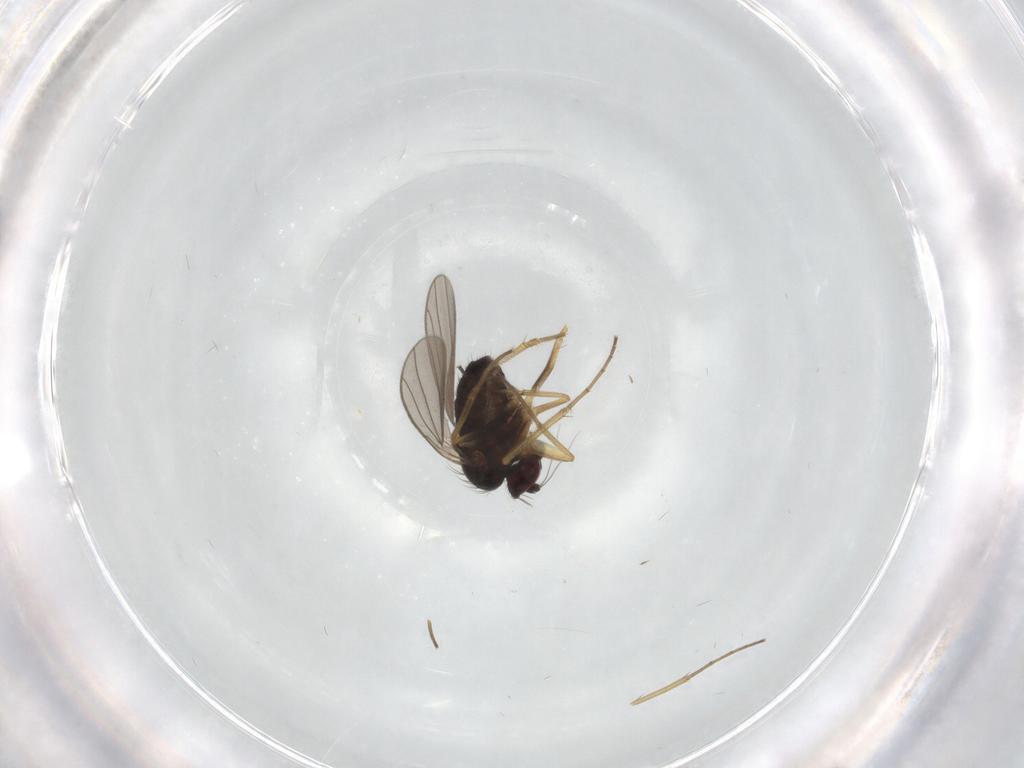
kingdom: Animalia
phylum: Arthropoda
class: Insecta
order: Diptera
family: Dolichopodidae
